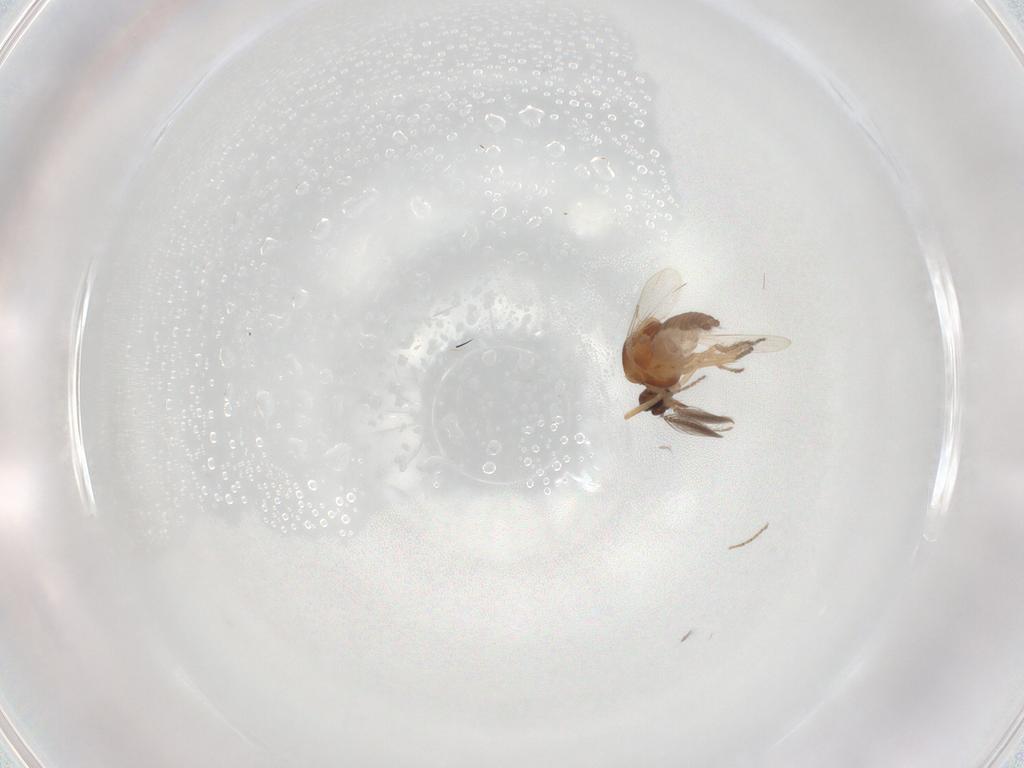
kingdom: Animalia
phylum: Arthropoda
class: Insecta
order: Diptera
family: Ceratopogonidae
